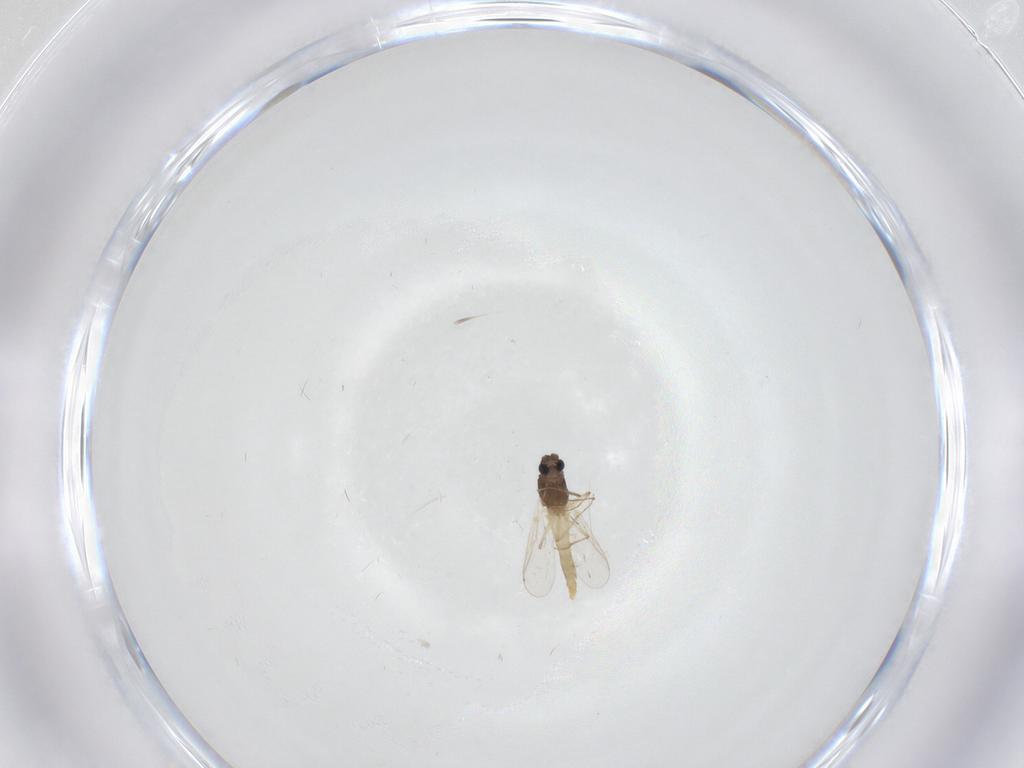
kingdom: Animalia
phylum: Arthropoda
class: Insecta
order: Diptera
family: Chironomidae
